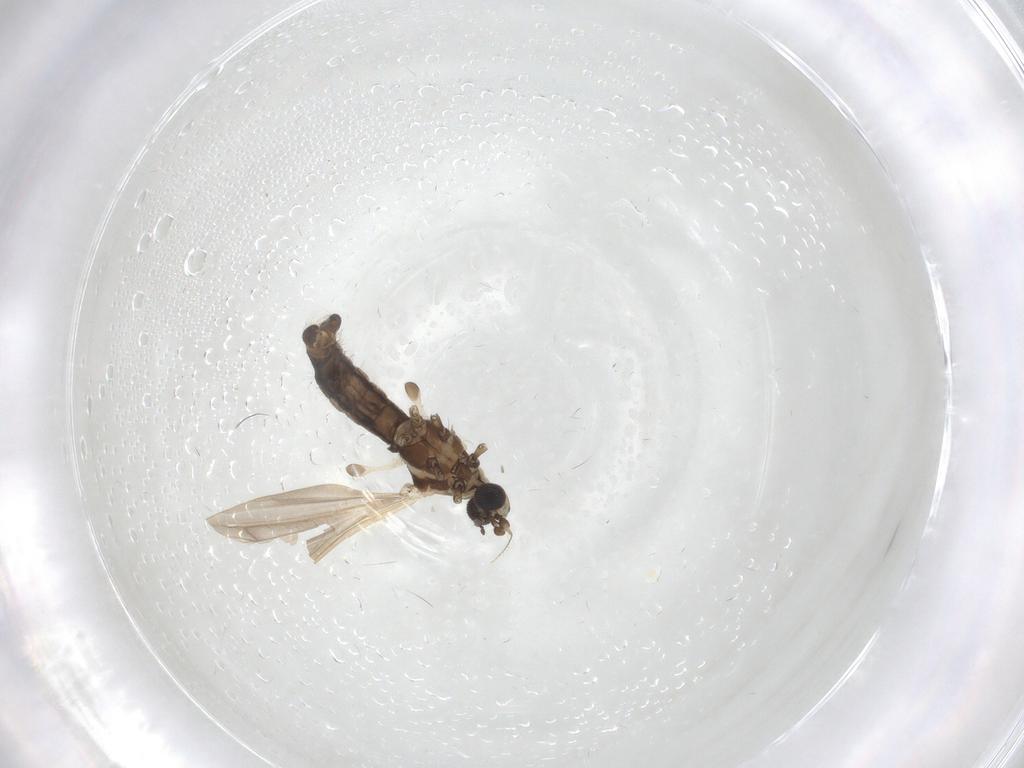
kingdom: Animalia
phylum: Arthropoda
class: Insecta
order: Diptera
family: Limoniidae
